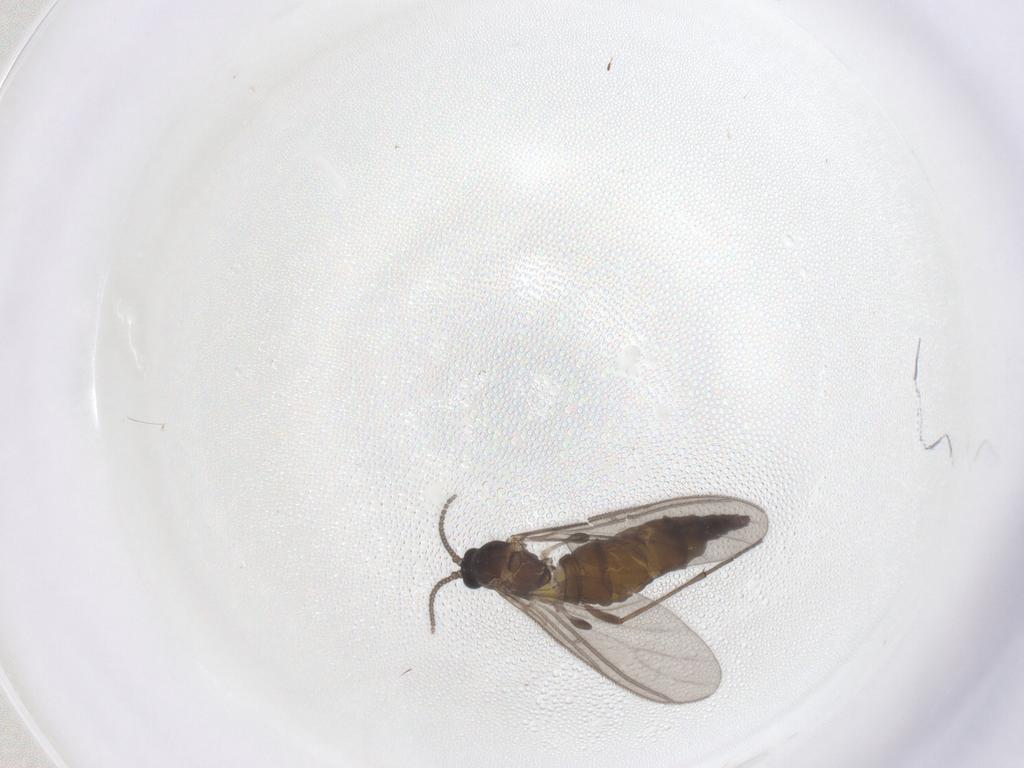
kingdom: Animalia
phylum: Arthropoda
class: Insecta
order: Diptera
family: Sciaridae
